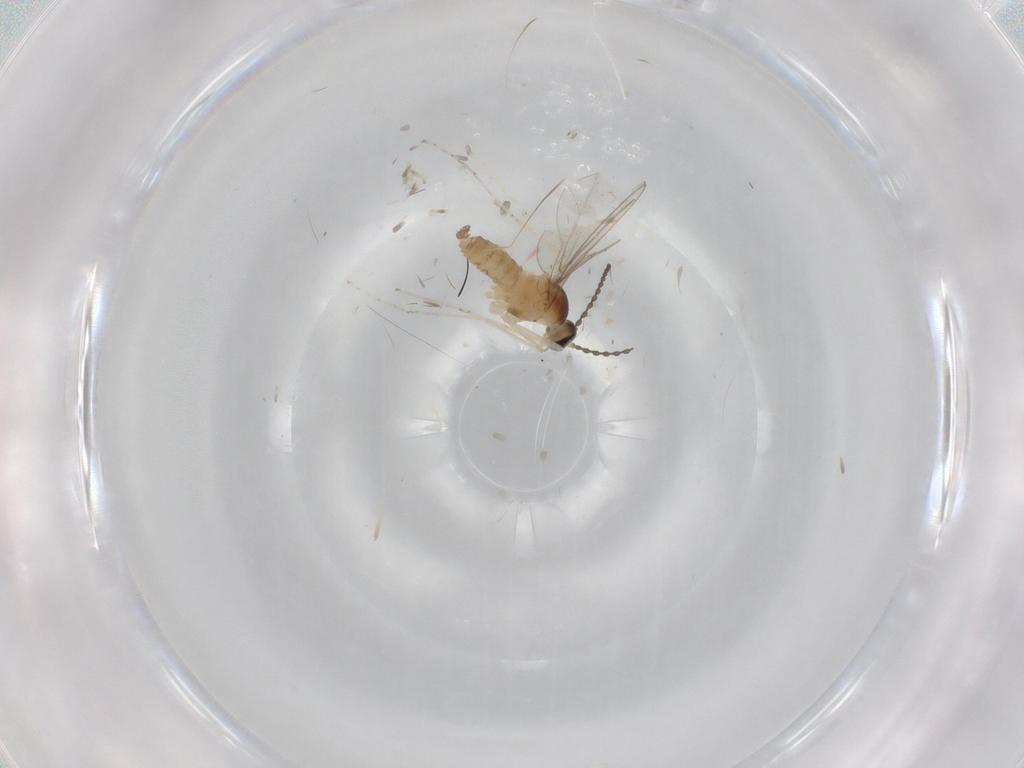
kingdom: Animalia
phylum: Arthropoda
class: Insecta
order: Diptera
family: Cecidomyiidae
